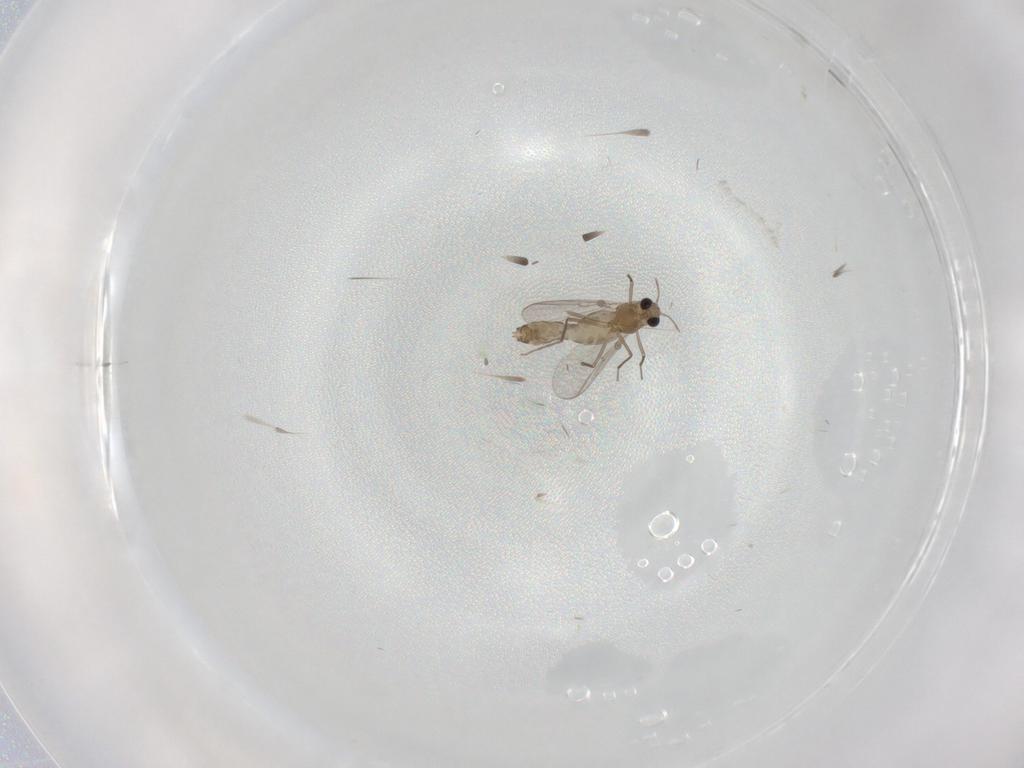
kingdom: Animalia
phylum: Arthropoda
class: Insecta
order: Diptera
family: Chironomidae
